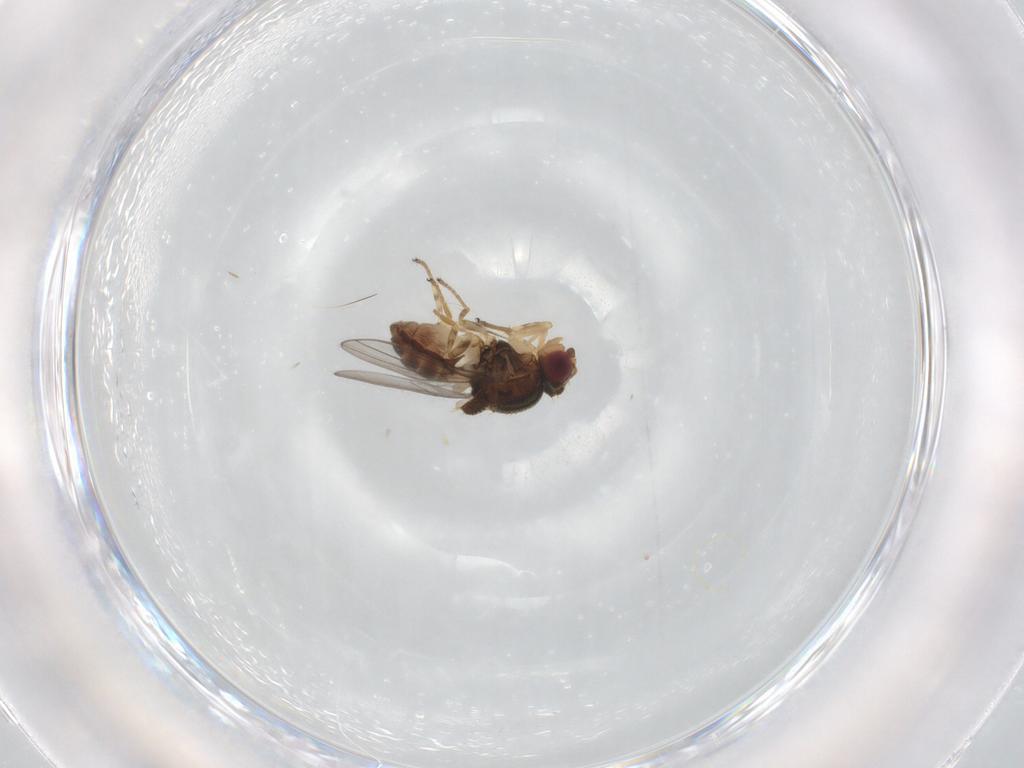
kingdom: Animalia
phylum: Arthropoda
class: Insecta
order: Diptera
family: Chloropidae
